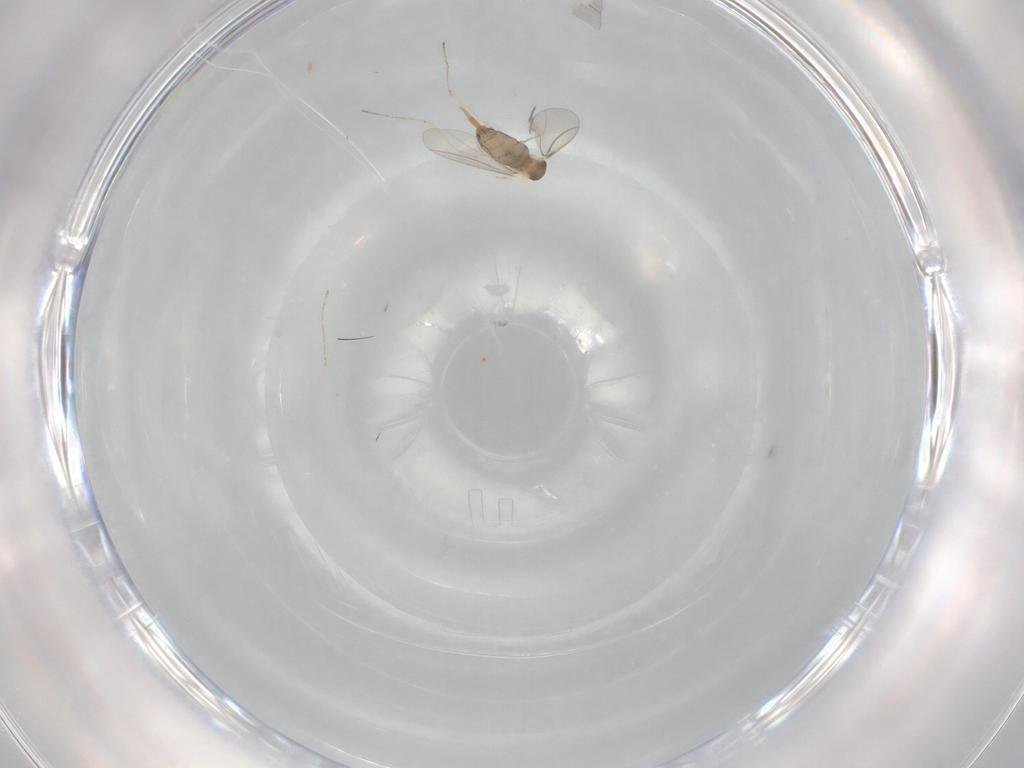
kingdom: Animalia
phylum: Arthropoda
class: Insecta
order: Diptera
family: Cecidomyiidae
